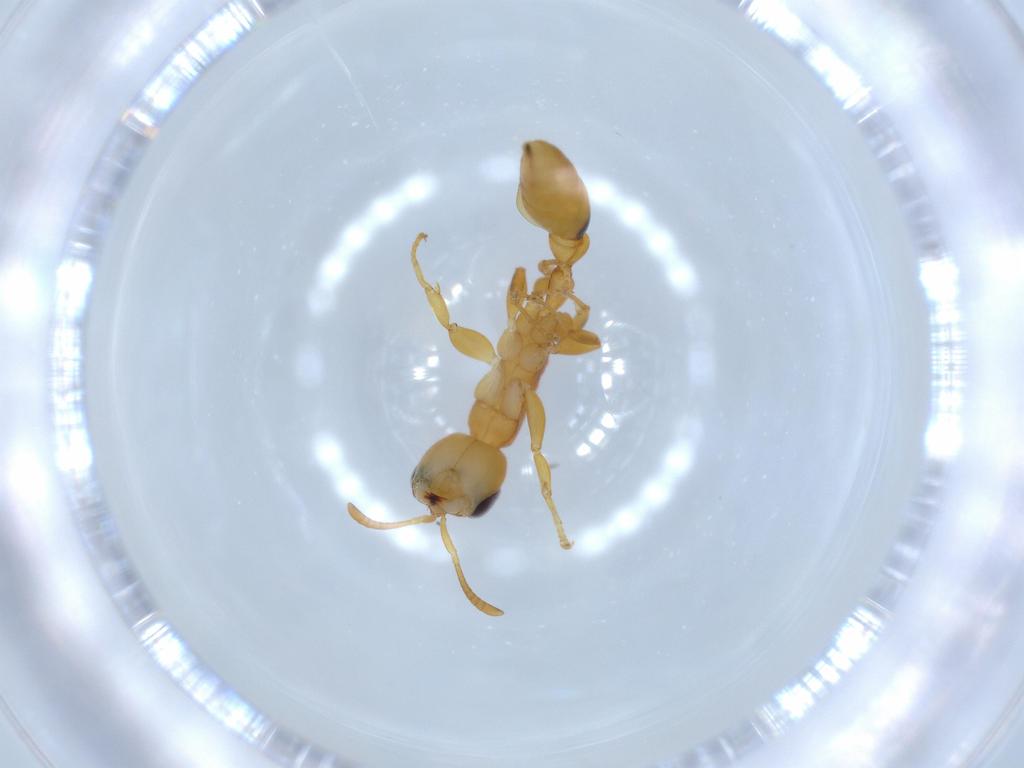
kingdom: Animalia
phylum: Arthropoda
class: Insecta
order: Hymenoptera
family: Formicidae
